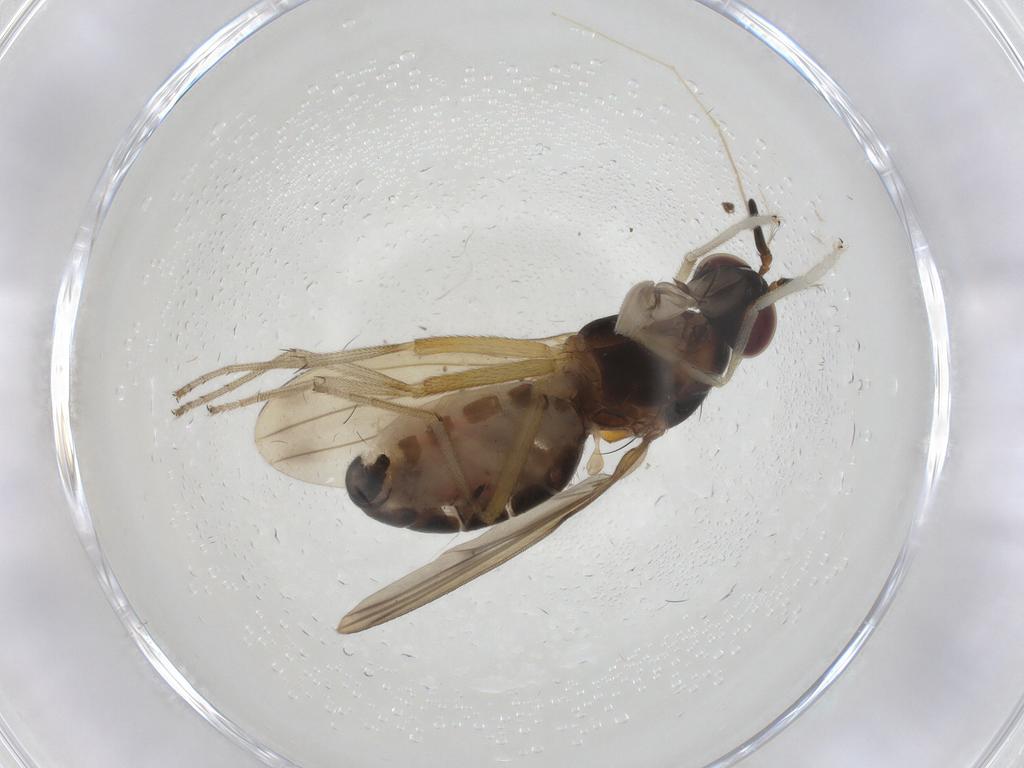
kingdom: Animalia
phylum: Arthropoda
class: Insecta
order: Diptera
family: Lauxaniidae
